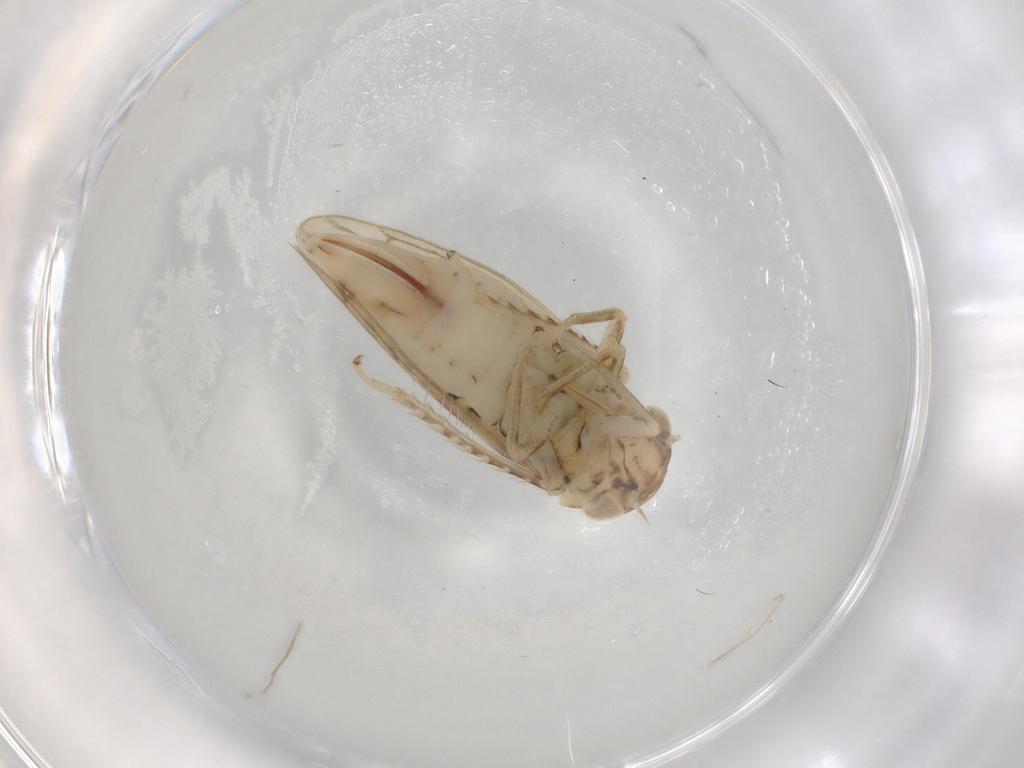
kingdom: Animalia
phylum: Arthropoda
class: Insecta
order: Hemiptera
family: Cicadellidae
